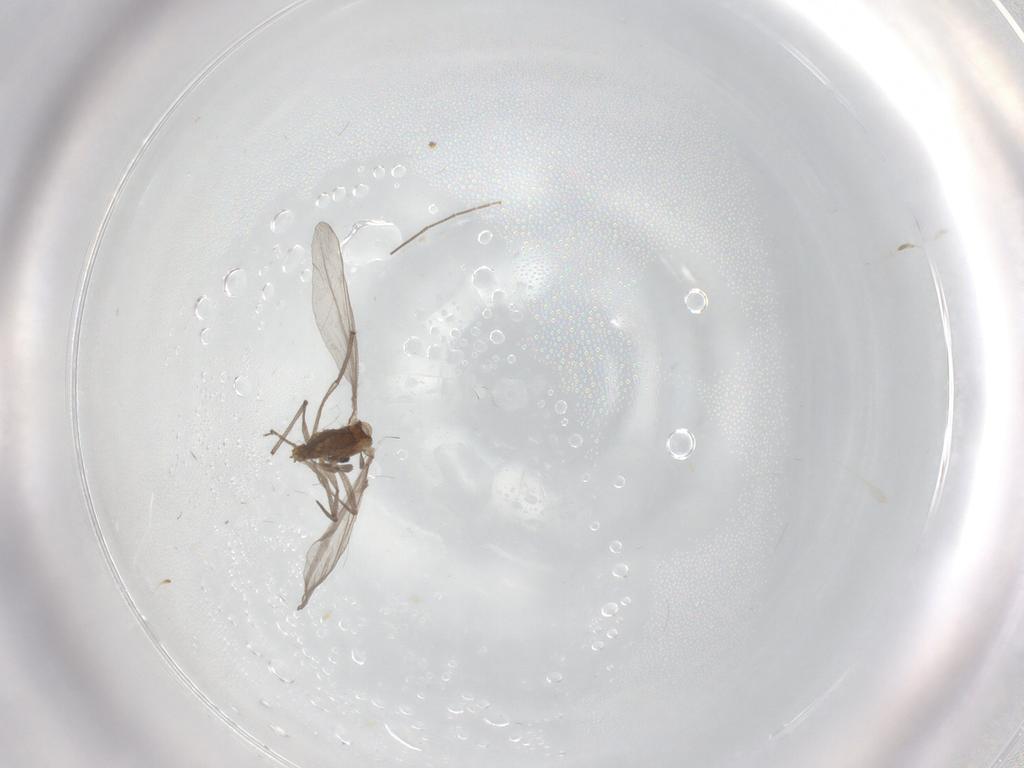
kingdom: Animalia
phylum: Arthropoda
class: Insecta
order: Diptera
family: Chironomidae
